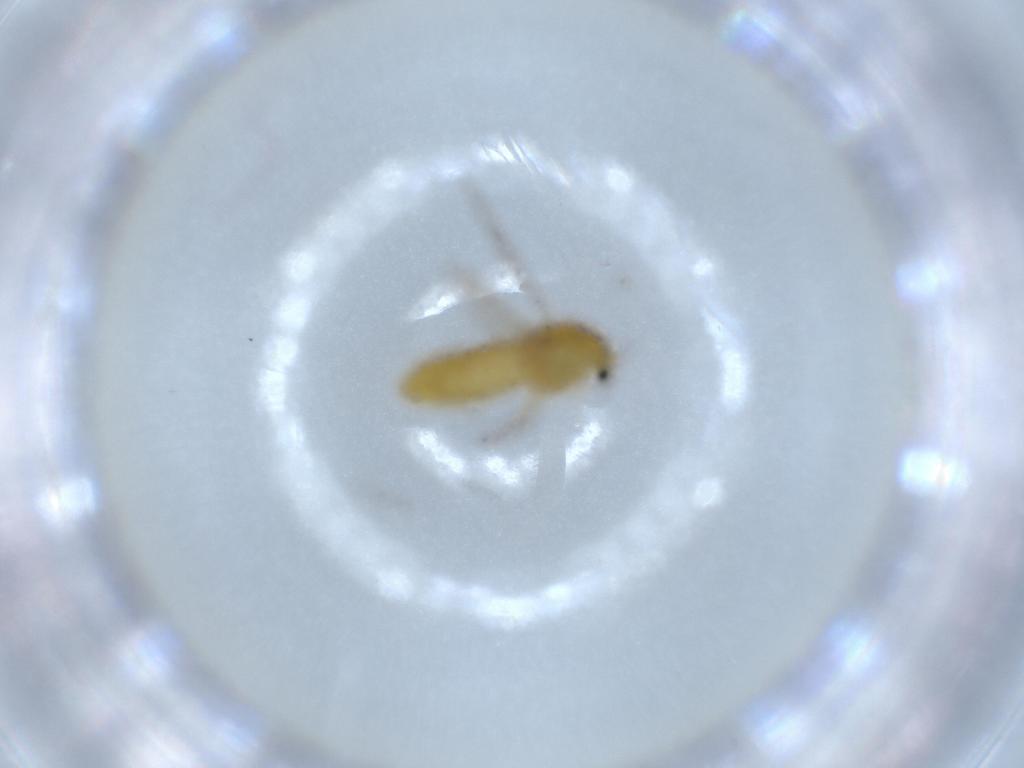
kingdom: Animalia
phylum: Arthropoda
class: Insecta
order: Diptera
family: Chironomidae
